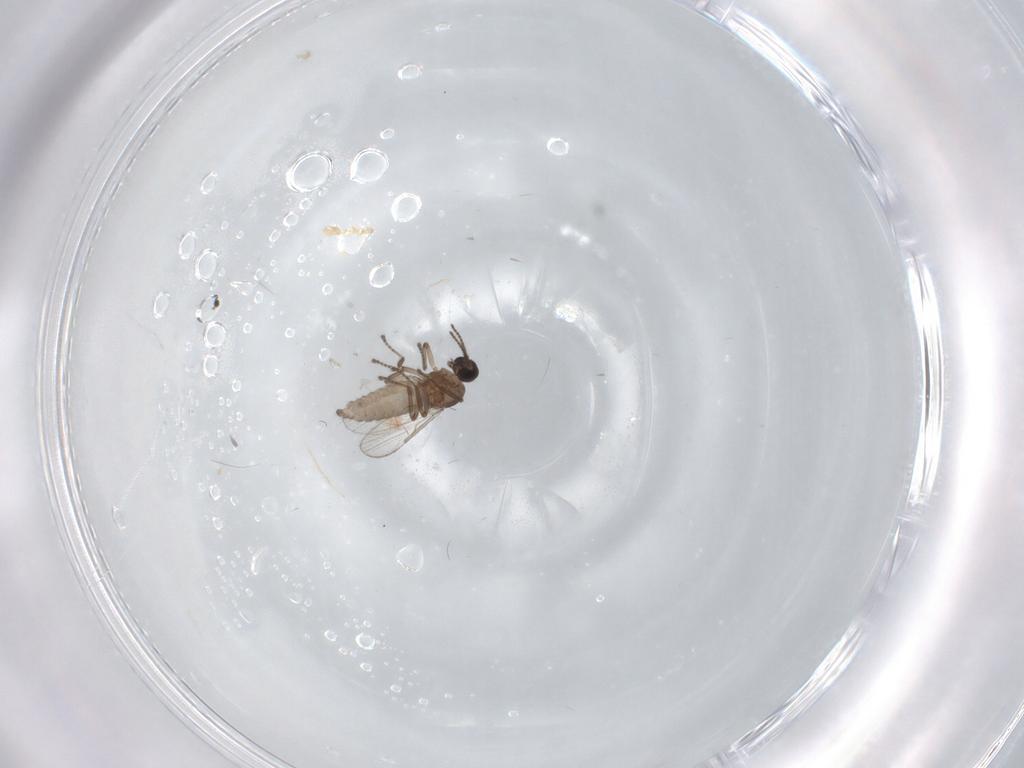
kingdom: Animalia
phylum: Arthropoda
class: Insecta
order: Diptera
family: Ceratopogonidae
